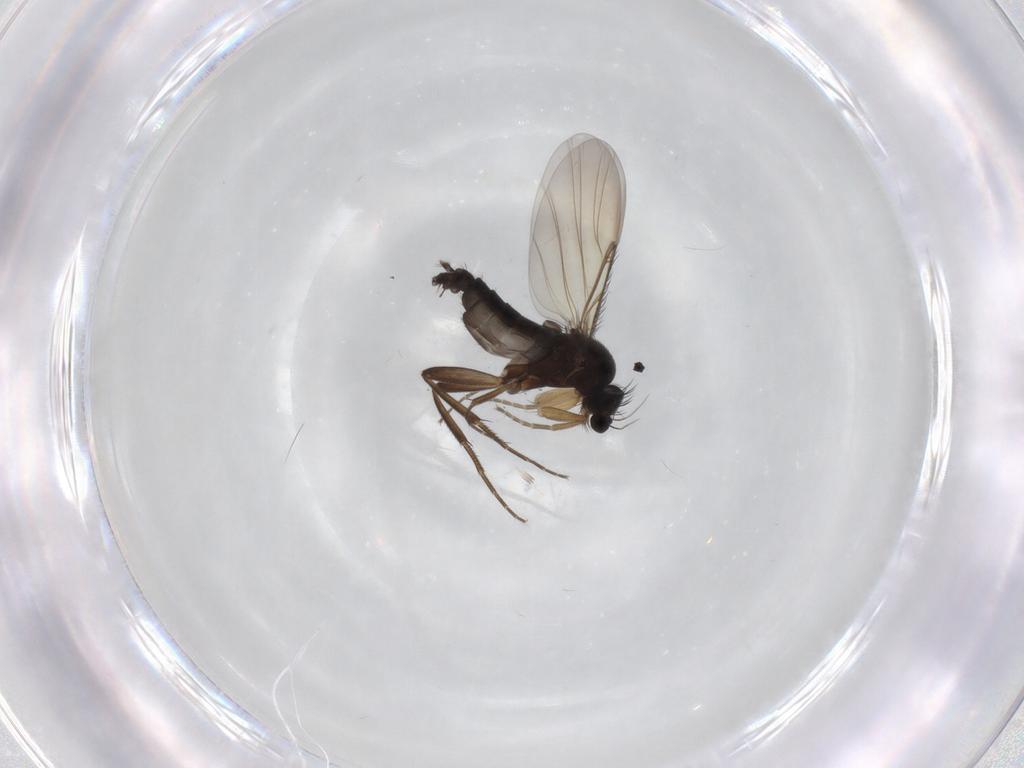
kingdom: Animalia
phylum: Arthropoda
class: Insecta
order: Diptera
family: Phoridae
